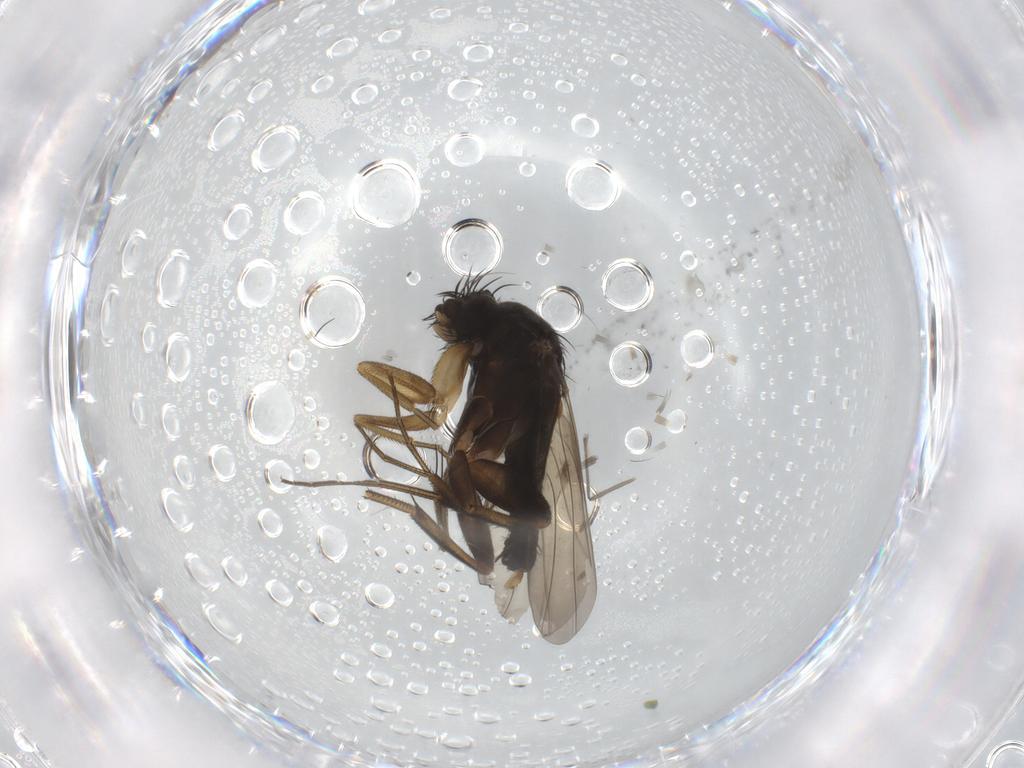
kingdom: Animalia
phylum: Arthropoda
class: Insecta
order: Diptera
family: Phoridae
